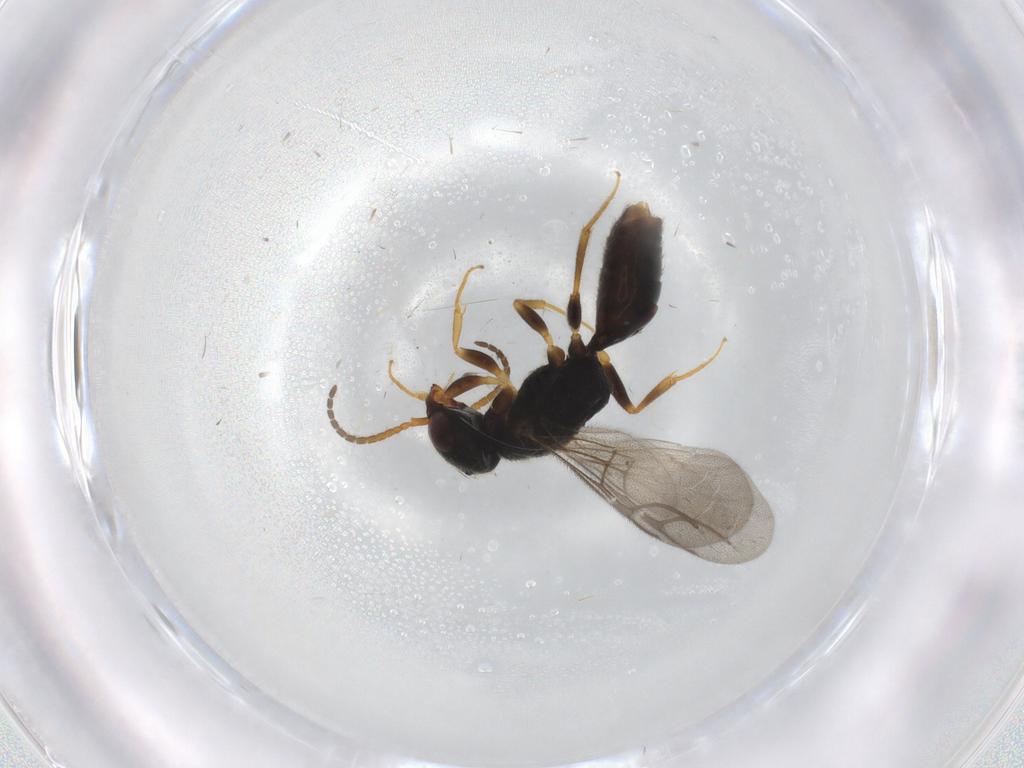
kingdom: Animalia
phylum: Arthropoda
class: Insecta
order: Hymenoptera
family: Bethylidae
